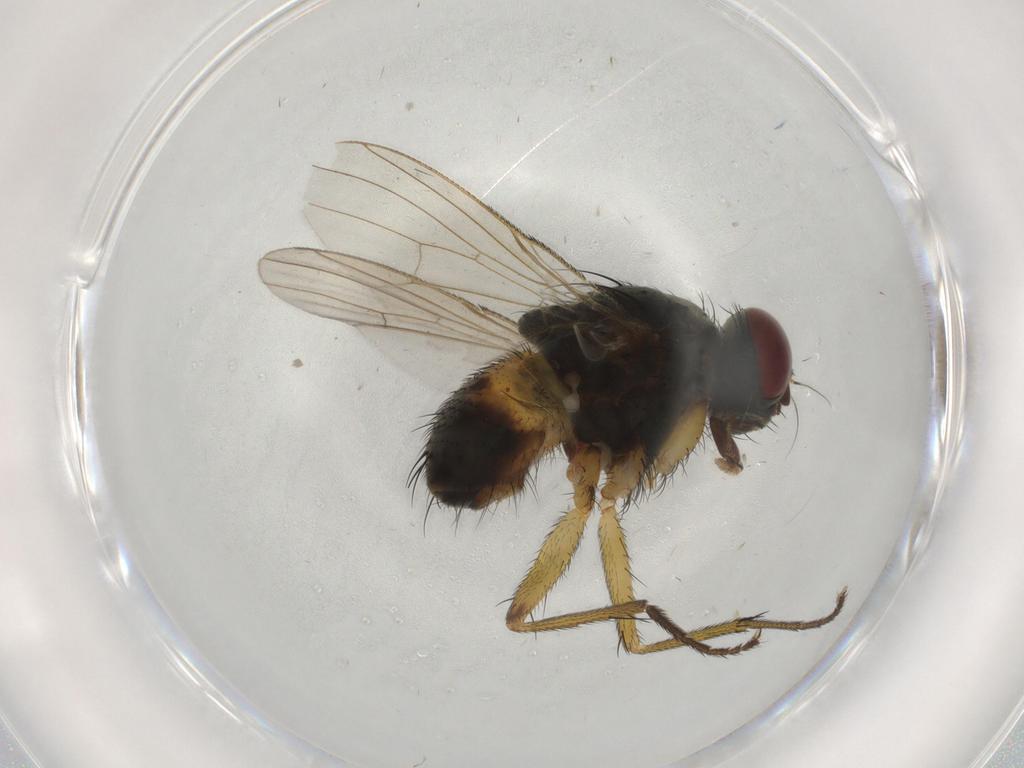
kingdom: Animalia
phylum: Arthropoda
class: Insecta
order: Diptera
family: Muscidae
